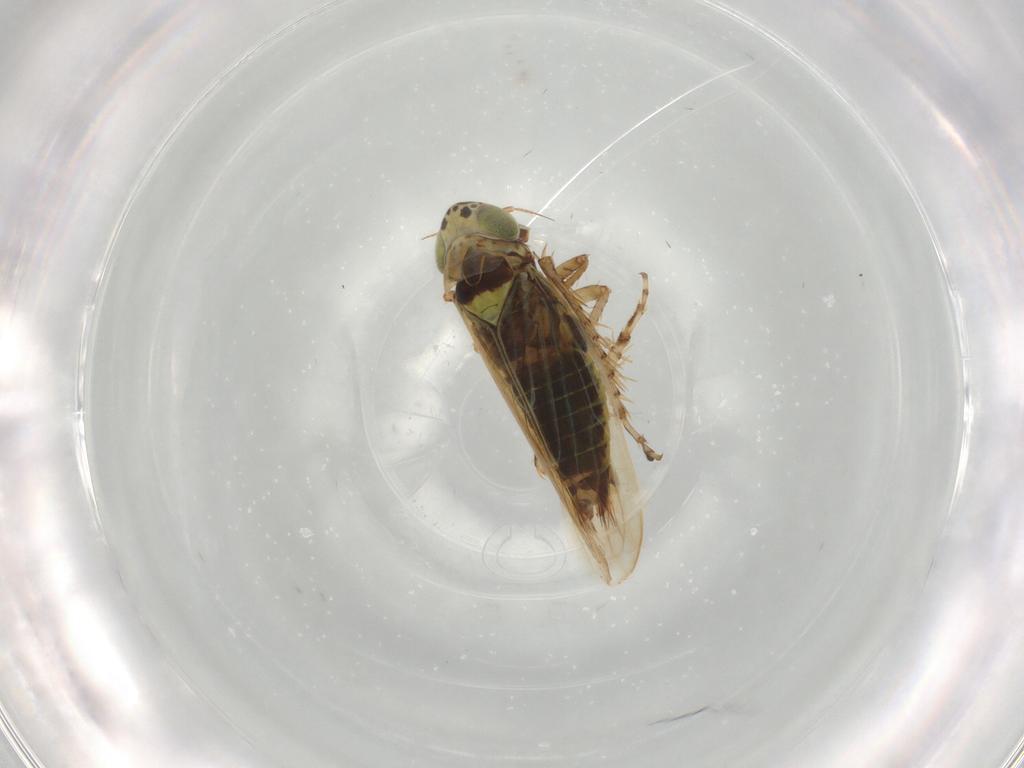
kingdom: Animalia
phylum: Arthropoda
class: Insecta
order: Hemiptera
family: Cicadellidae
